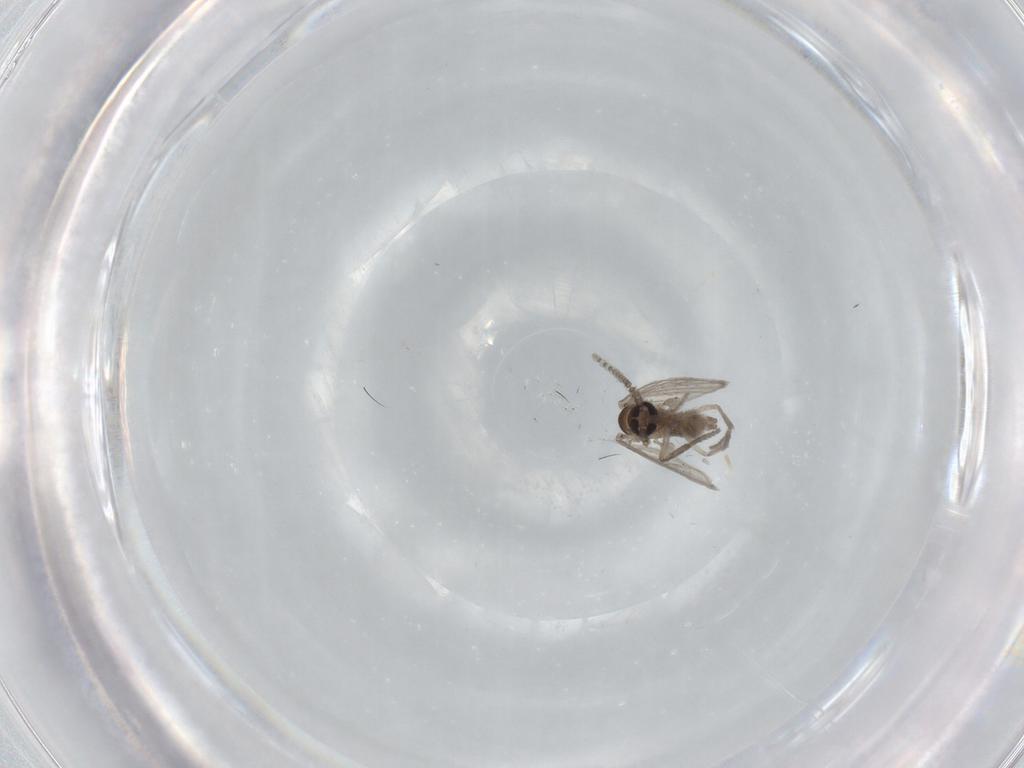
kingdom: Animalia
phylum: Arthropoda
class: Insecta
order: Diptera
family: Psychodidae
